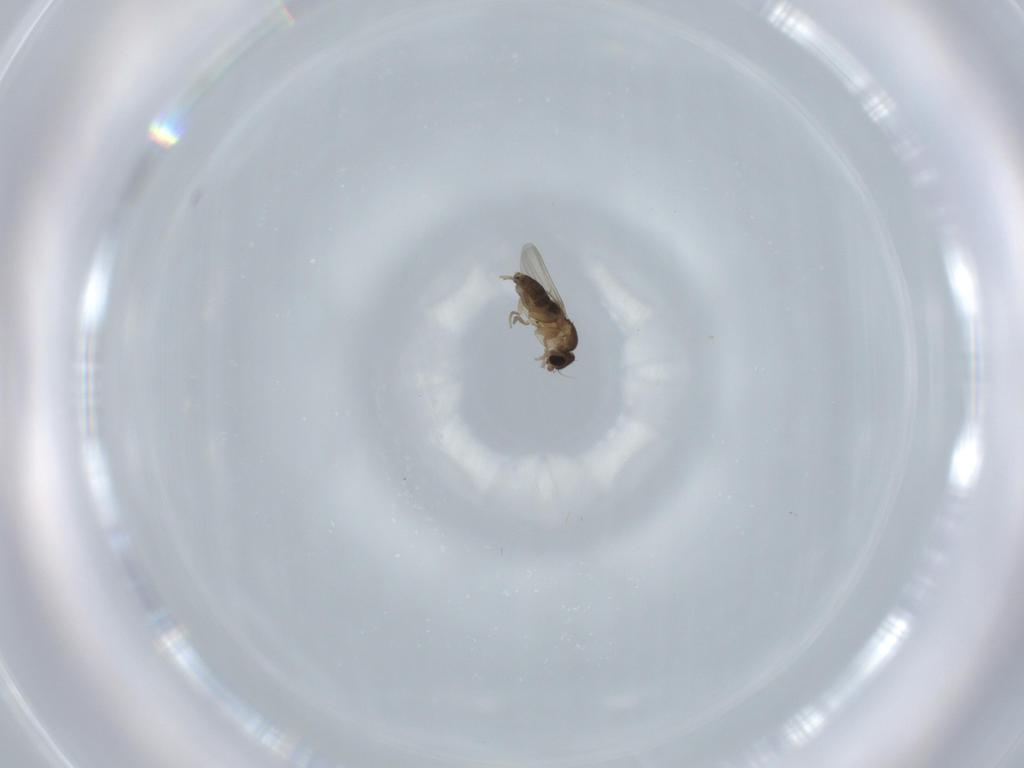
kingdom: Animalia
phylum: Arthropoda
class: Insecta
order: Diptera
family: Phoridae
